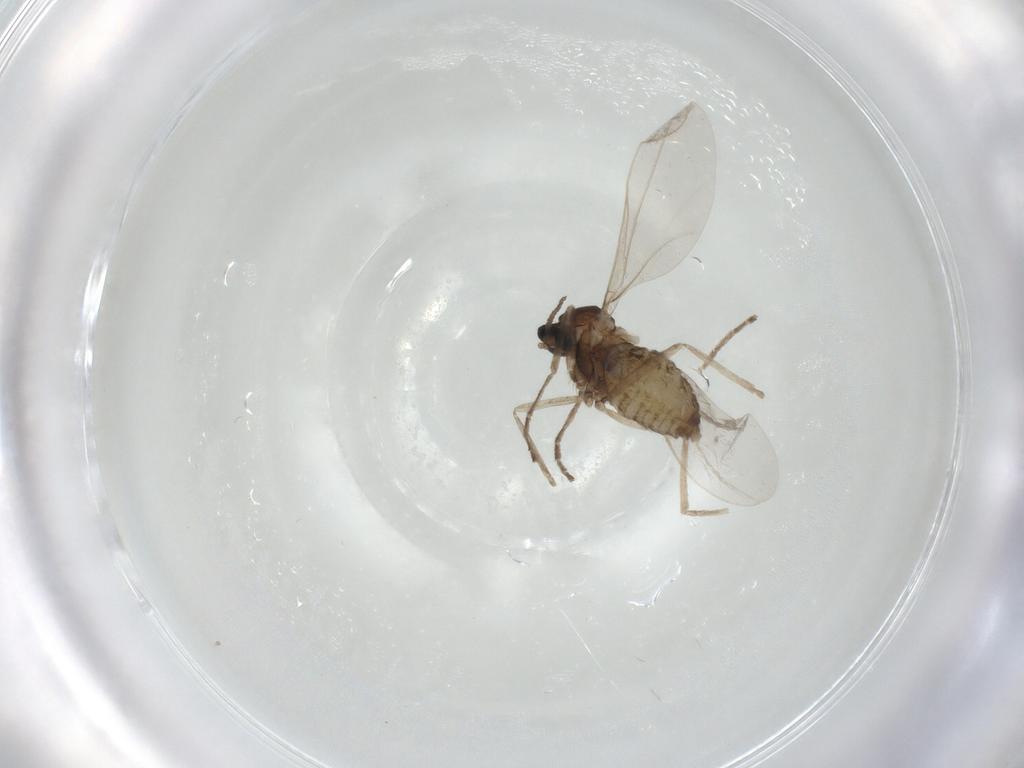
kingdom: Animalia
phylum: Arthropoda
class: Insecta
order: Diptera
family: Cecidomyiidae
